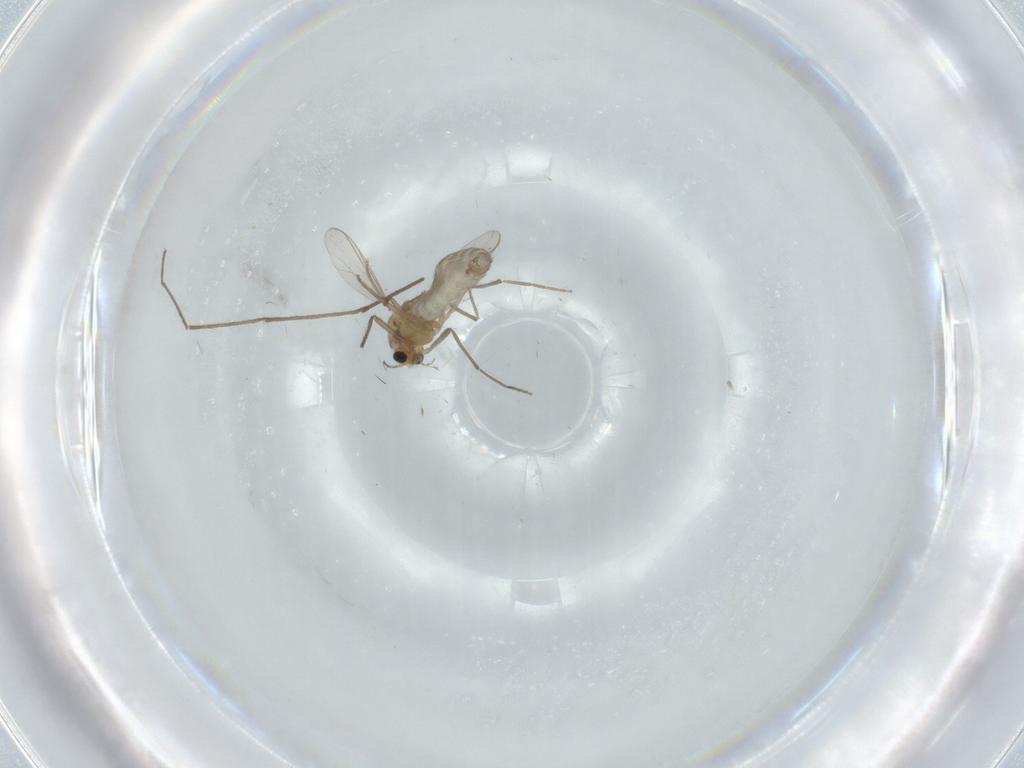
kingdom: Animalia
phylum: Arthropoda
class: Insecta
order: Diptera
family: Chironomidae
